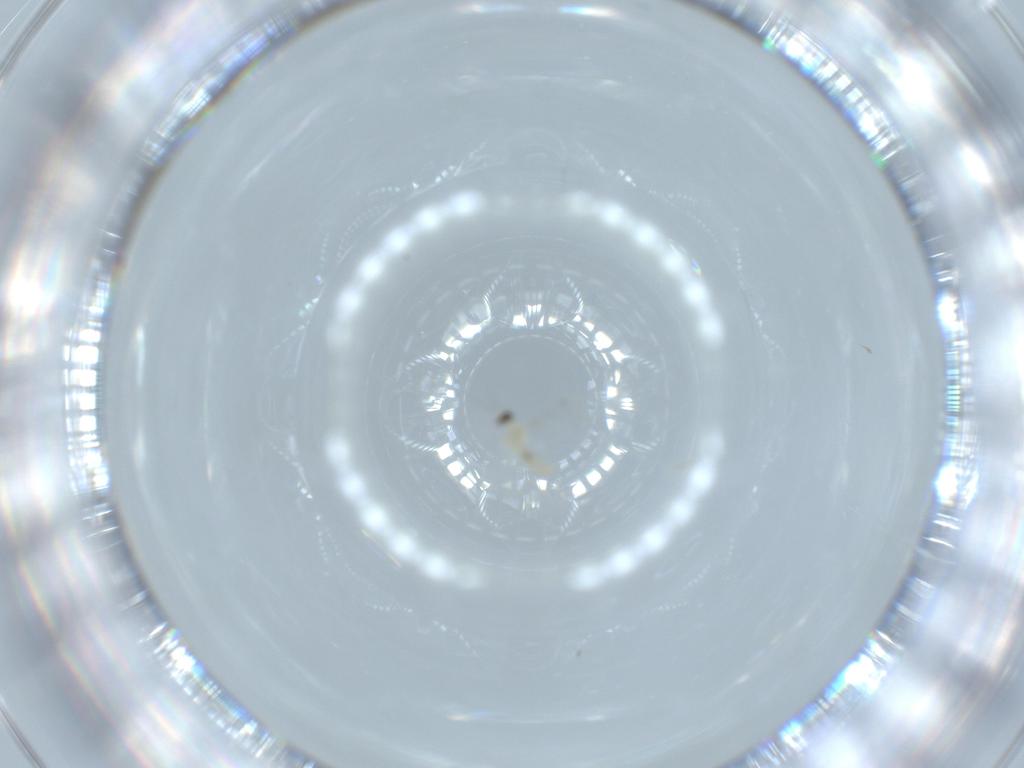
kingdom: Animalia
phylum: Arthropoda
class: Insecta
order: Diptera
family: Cecidomyiidae
